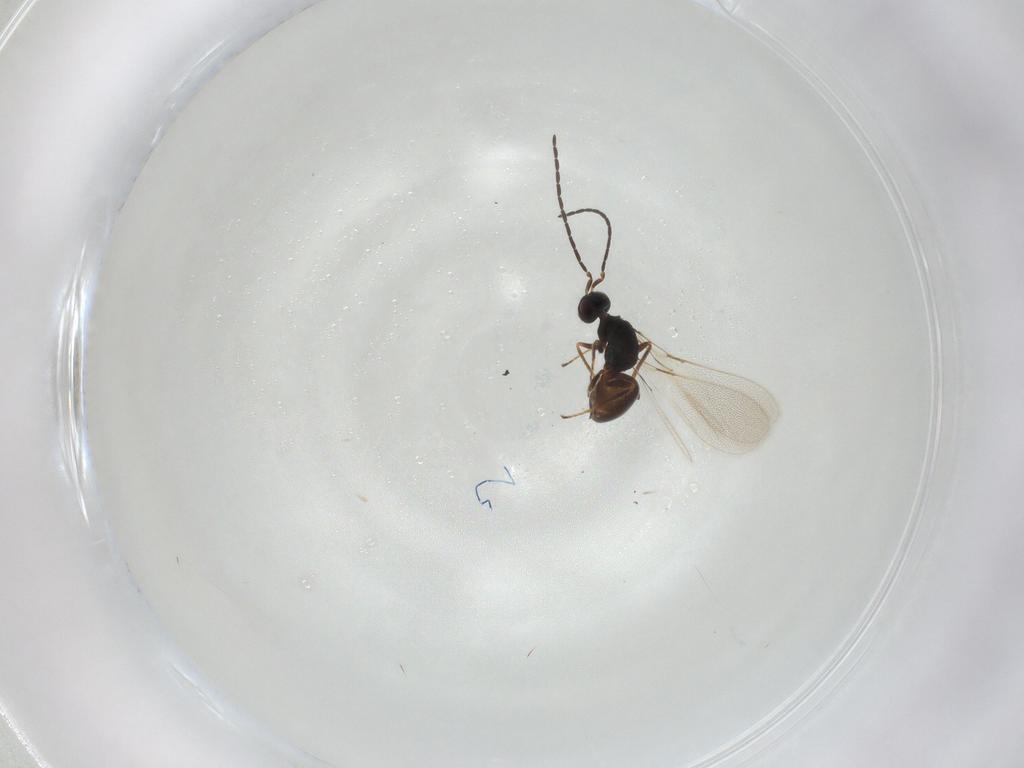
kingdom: Animalia
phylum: Arthropoda
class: Insecta
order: Hymenoptera
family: Mymaridae
